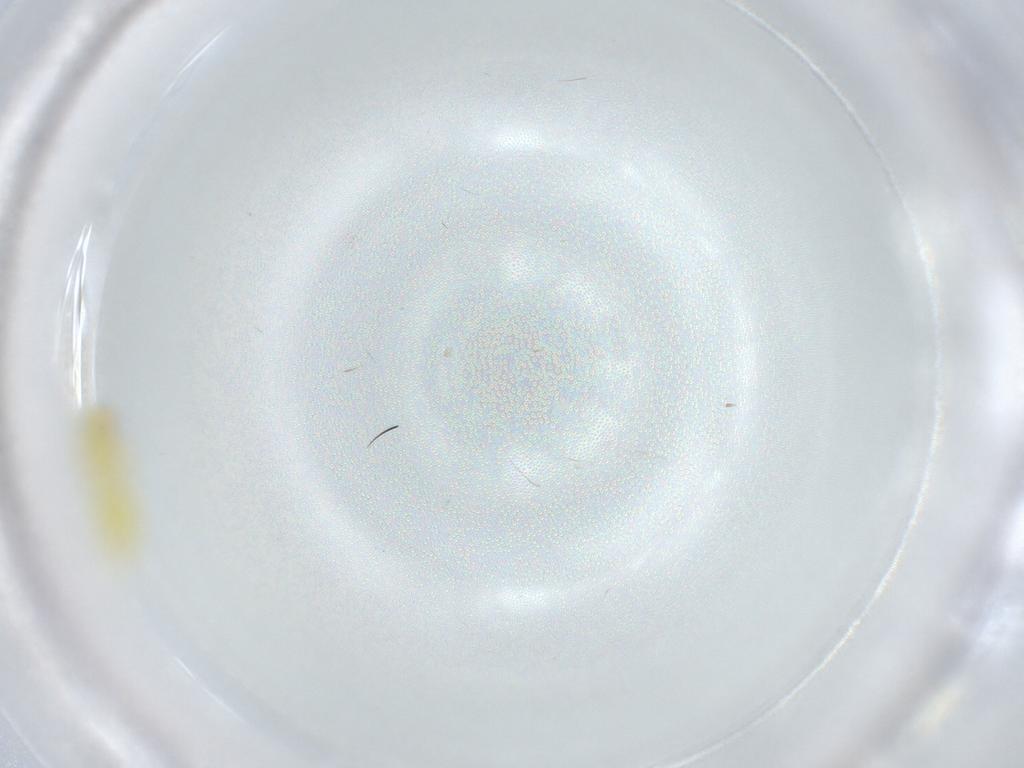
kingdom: Animalia
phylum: Arthropoda
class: Insecta
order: Hemiptera
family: Aleyrodidae
